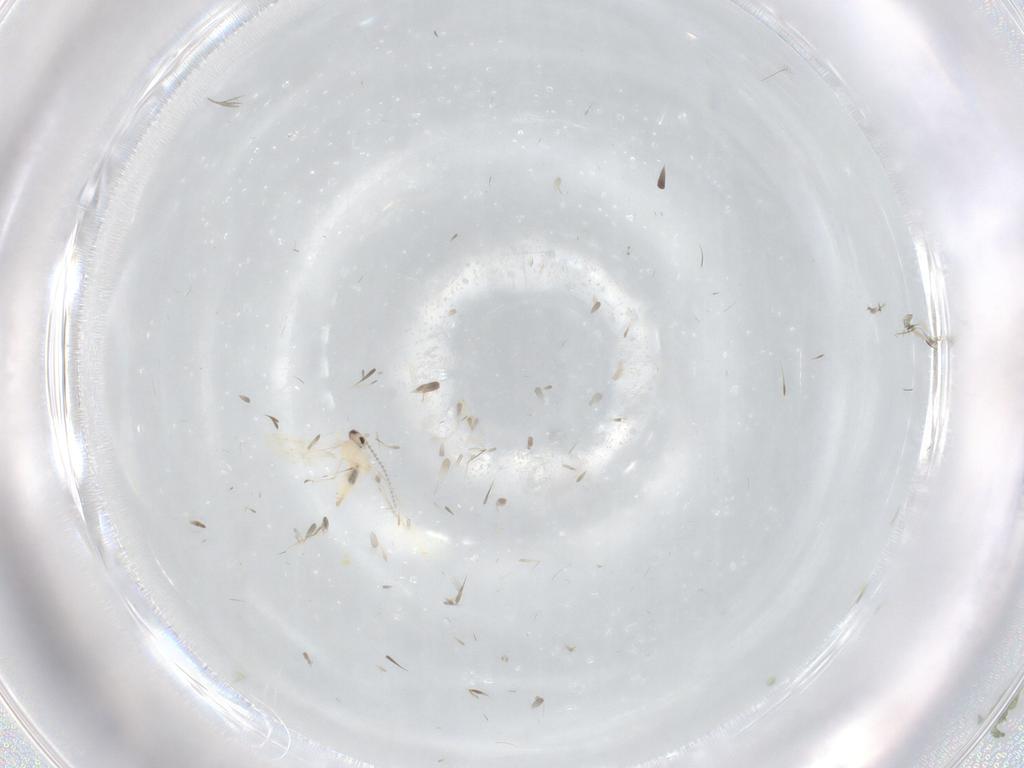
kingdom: Animalia
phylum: Arthropoda
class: Insecta
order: Diptera
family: Cecidomyiidae
